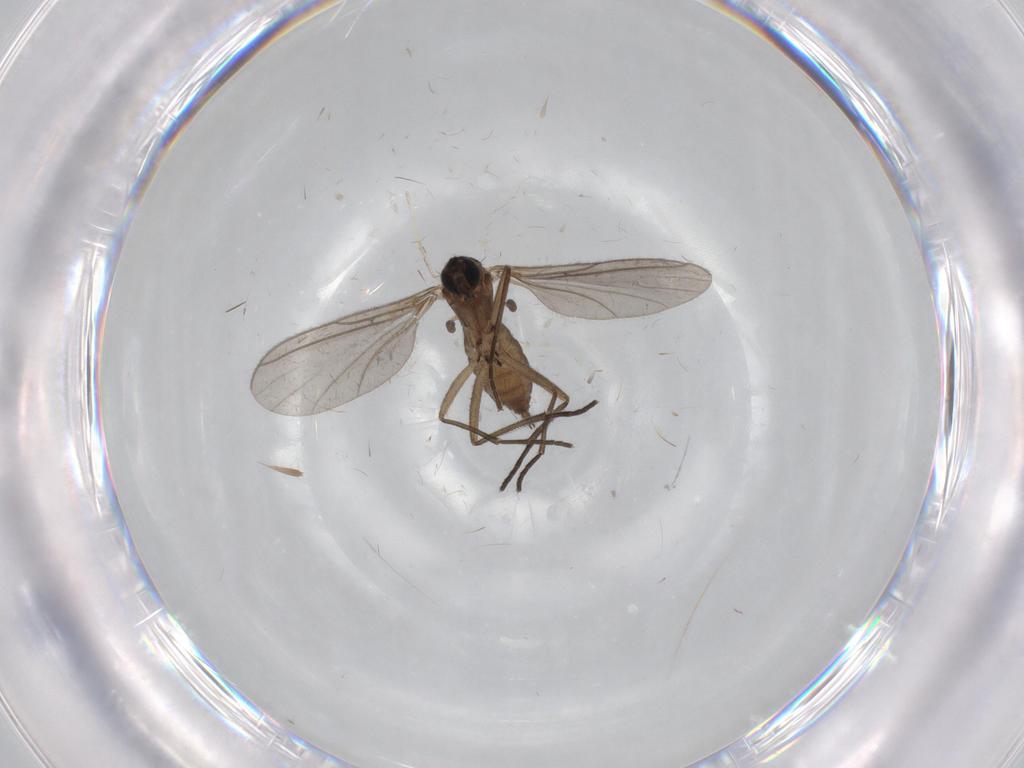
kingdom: Animalia
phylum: Arthropoda
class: Insecta
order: Diptera
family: Sciaridae
